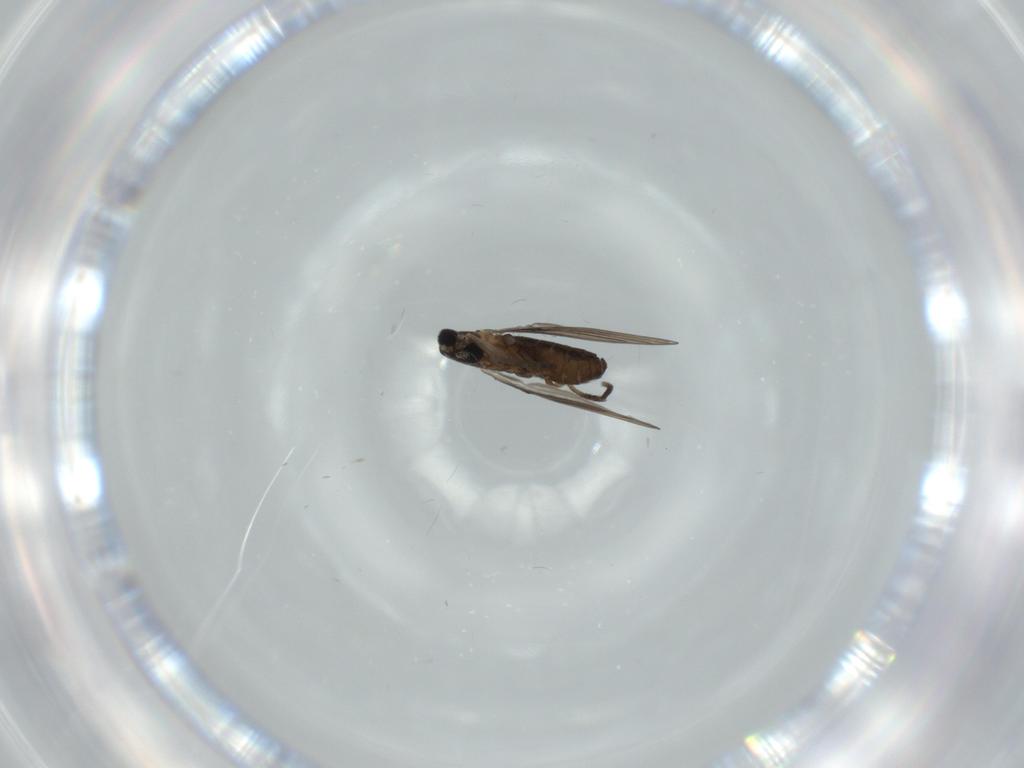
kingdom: Animalia
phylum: Arthropoda
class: Insecta
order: Diptera
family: Psychodidae
